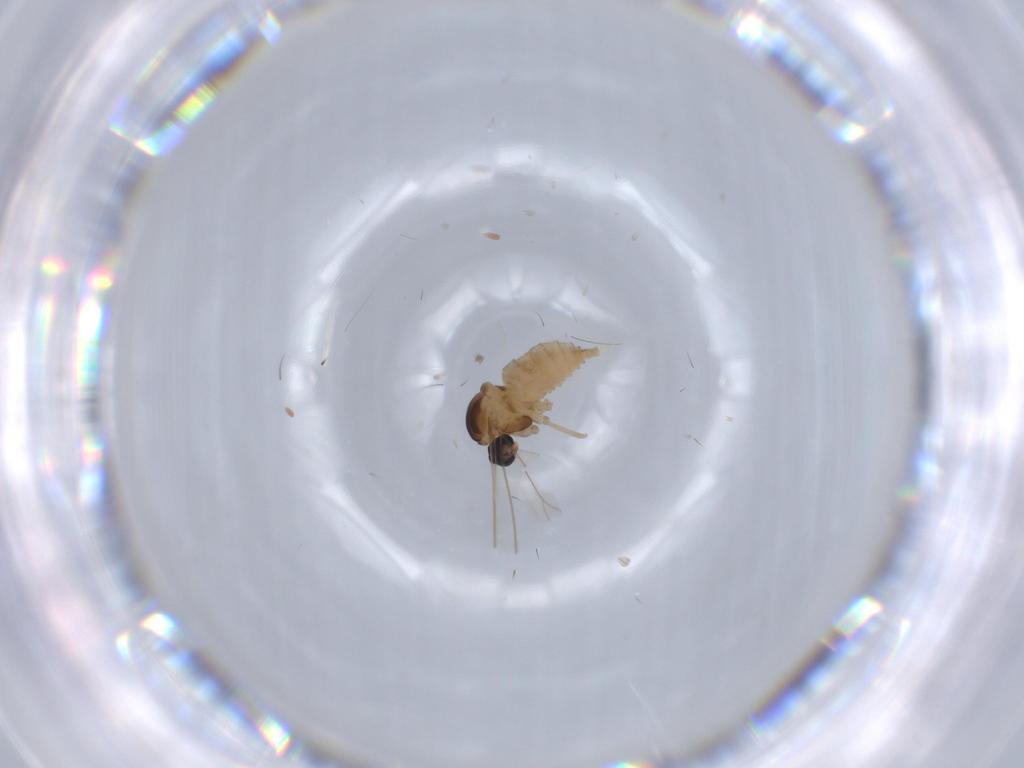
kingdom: Animalia
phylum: Arthropoda
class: Insecta
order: Diptera
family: Cecidomyiidae
